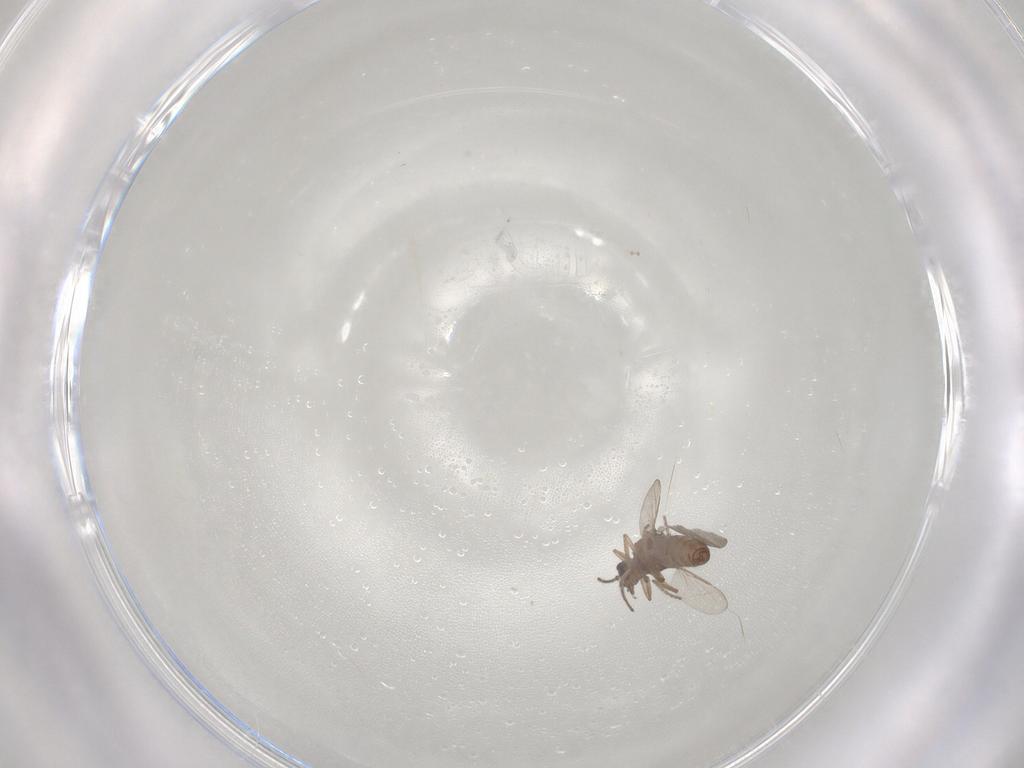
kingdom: Animalia
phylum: Arthropoda
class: Insecta
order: Diptera
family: Ceratopogonidae
